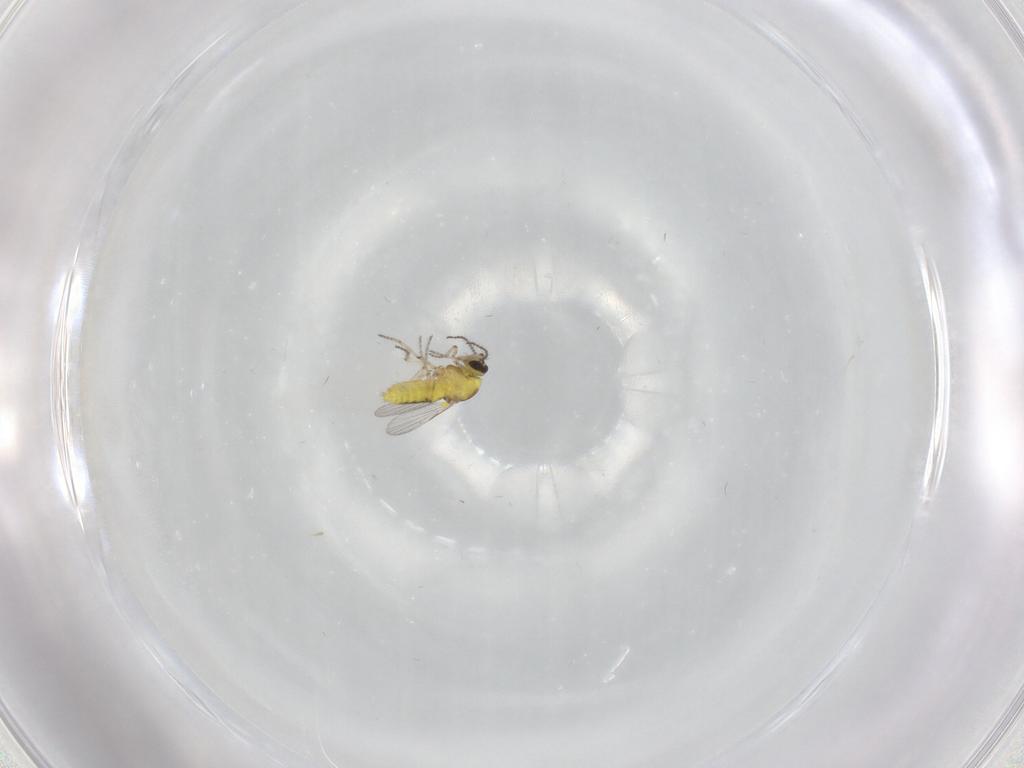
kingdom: Animalia
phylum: Arthropoda
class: Insecta
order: Diptera
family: Ceratopogonidae
